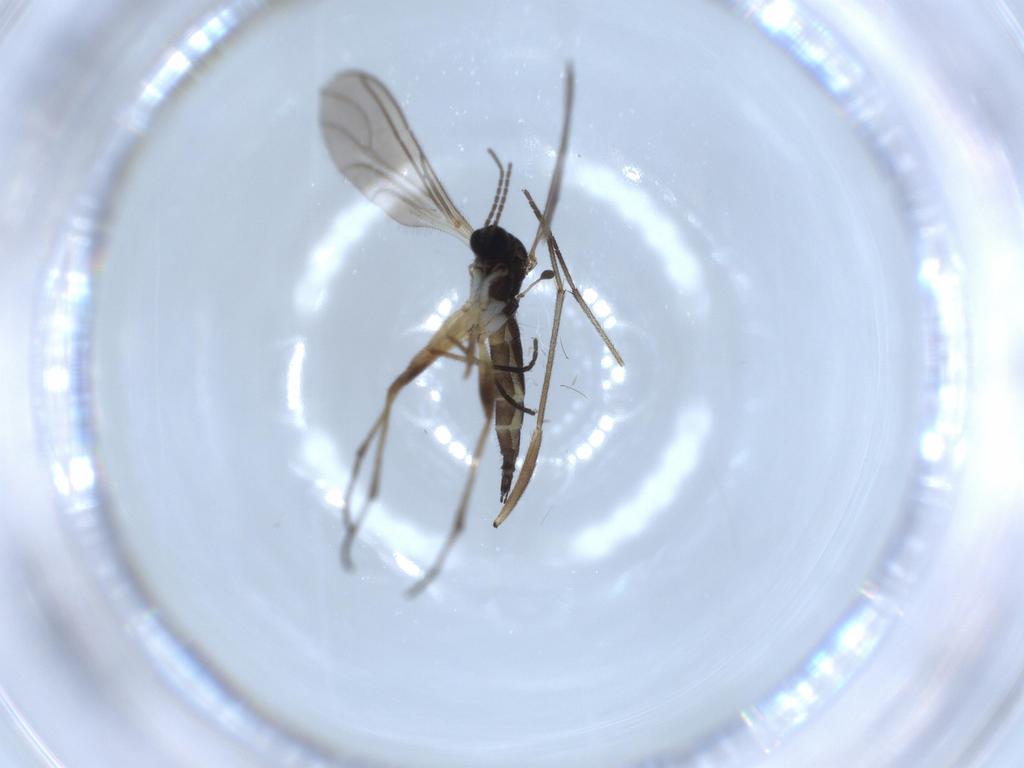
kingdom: Animalia
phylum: Arthropoda
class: Insecta
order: Diptera
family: Sciaridae
